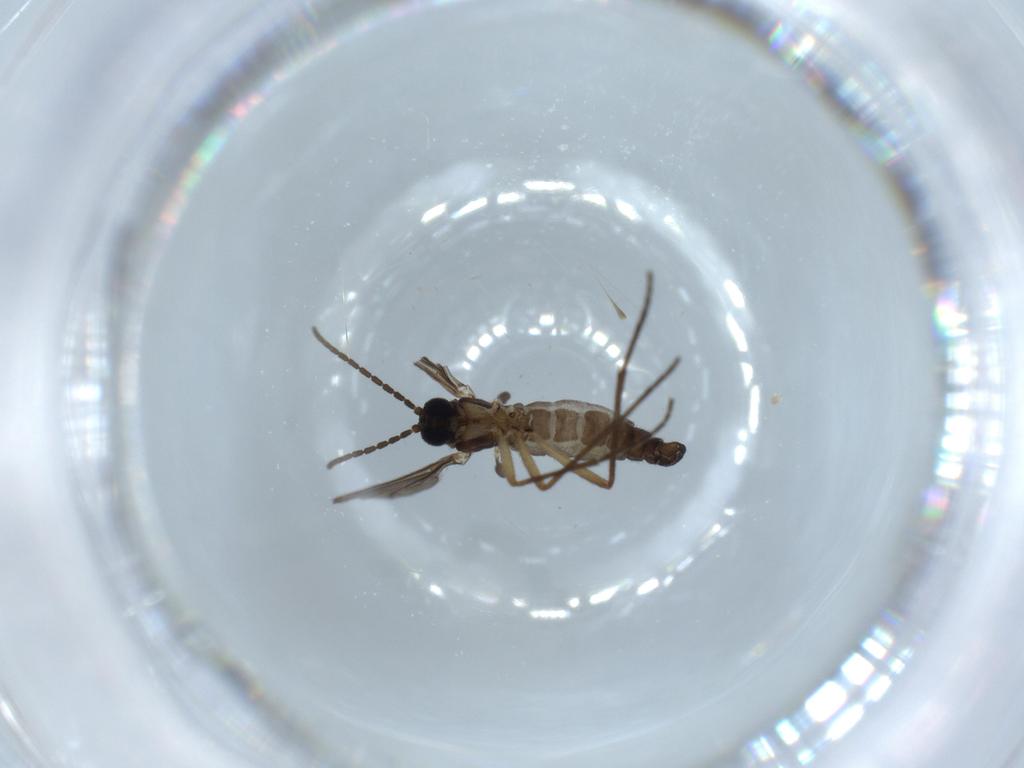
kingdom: Animalia
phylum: Arthropoda
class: Insecta
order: Diptera
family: Sciaridae
